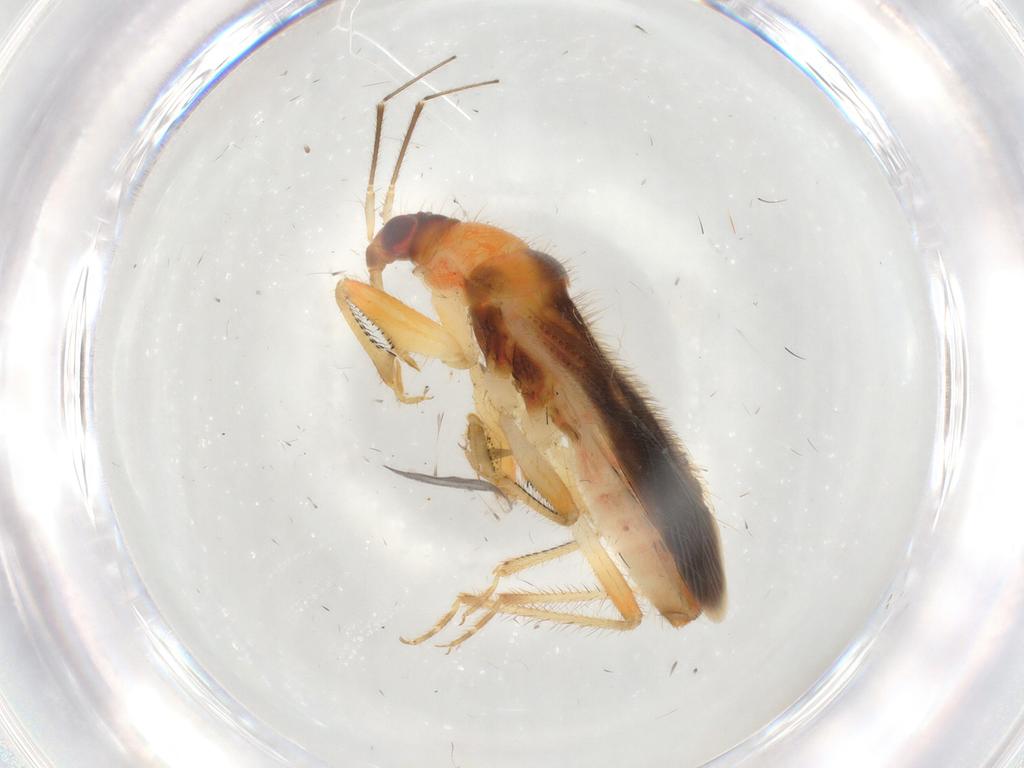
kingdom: Animalia
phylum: Arthropoda
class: Insecta
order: Hemiptera
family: Nabidae
